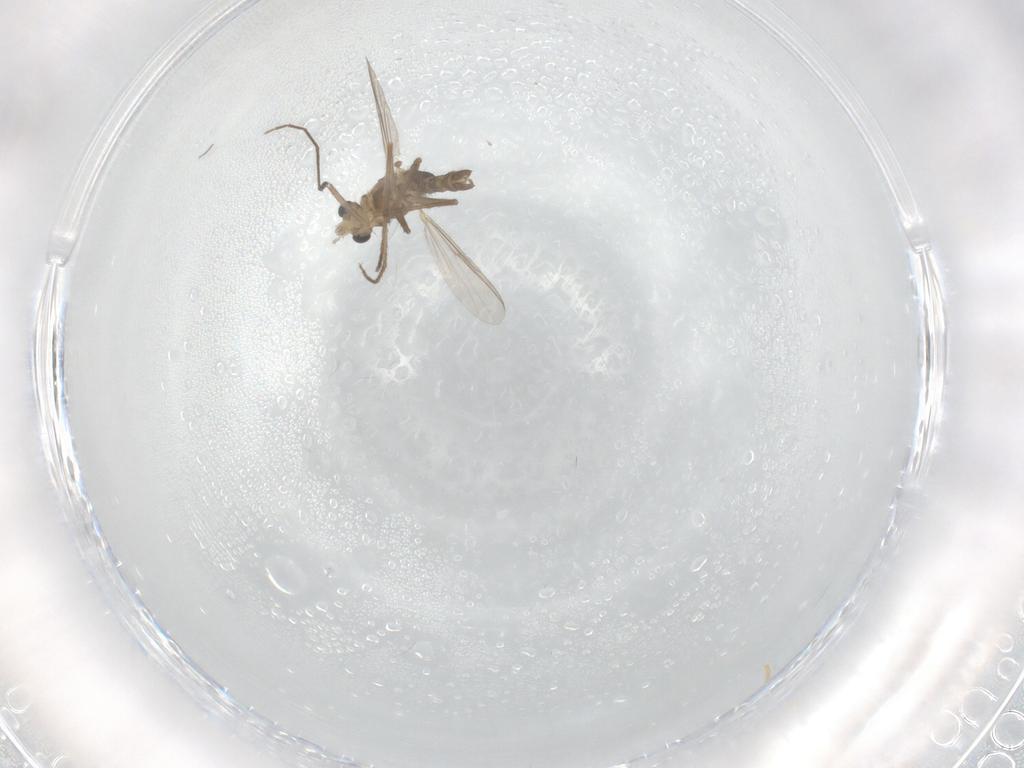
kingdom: Animalia
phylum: Arthropoda
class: Insecta
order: Diptera
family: Chironomidae
